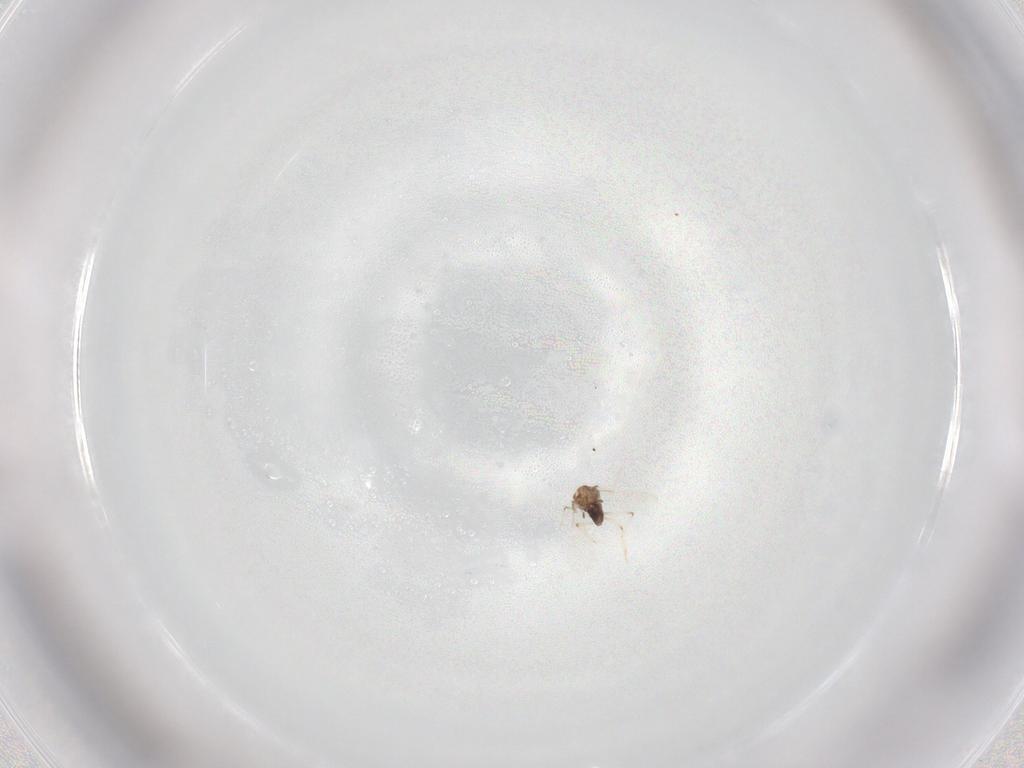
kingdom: Animalia
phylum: Arthropoda
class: Insecta
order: Diptera
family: Chironomidae
